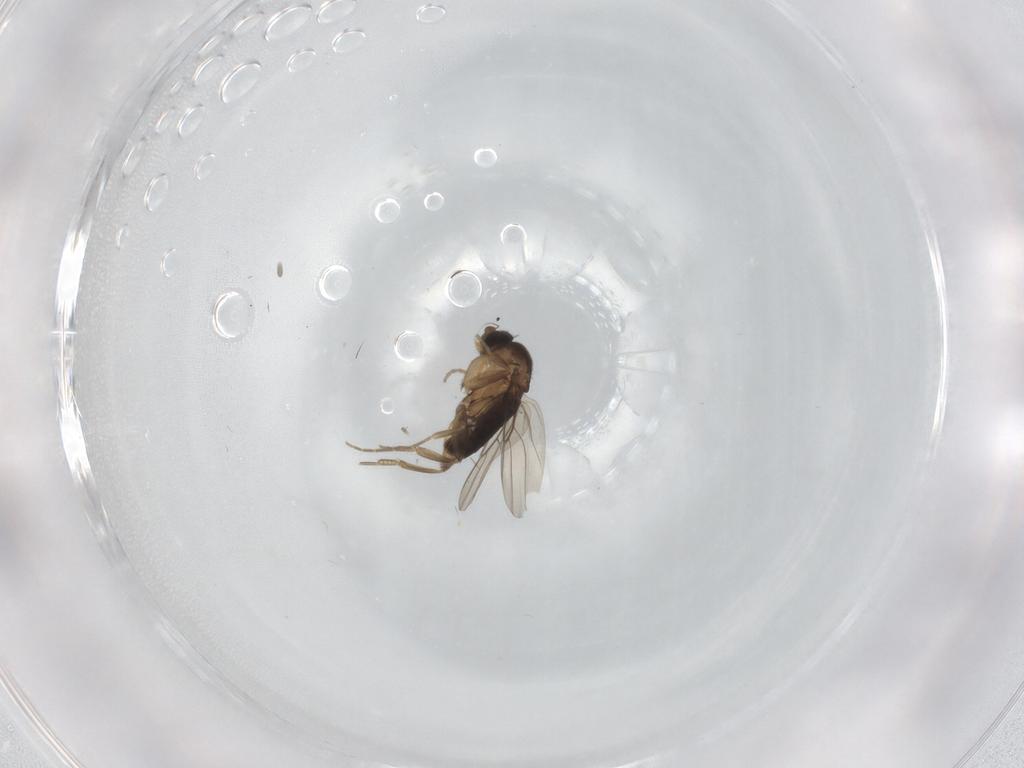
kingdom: Animalia
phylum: Arthropoda
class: Insecta
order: Diptera
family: Phoridae
